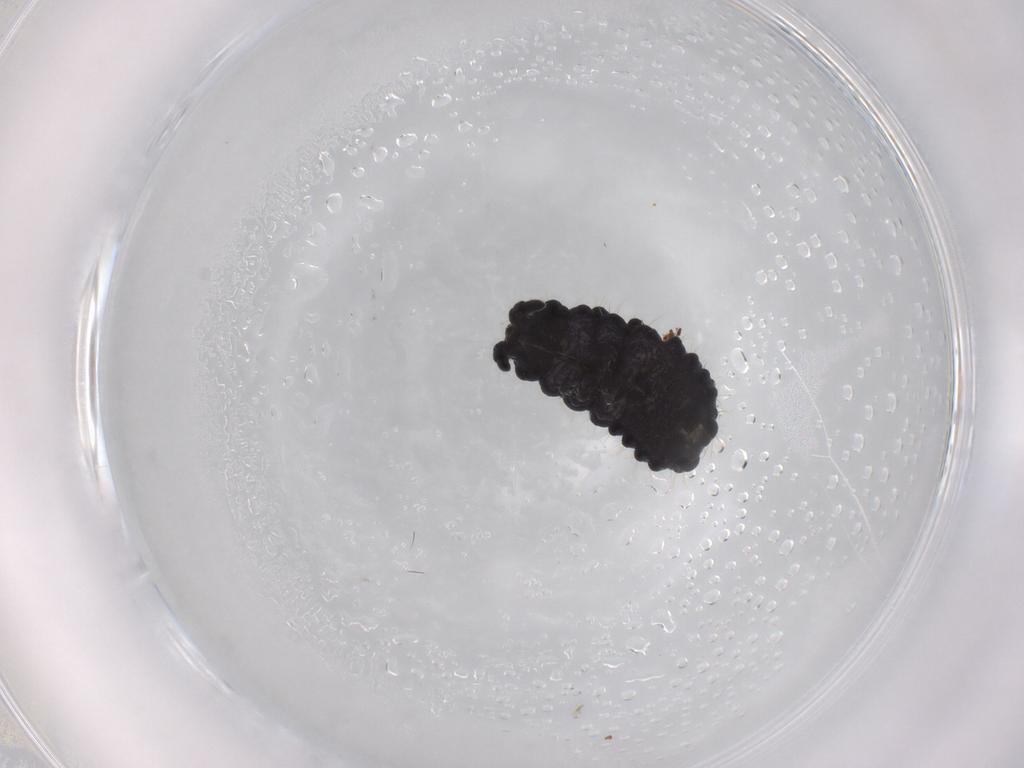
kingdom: Animalia
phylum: Arthropoda
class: Collembola
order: Poduromorpha
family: Neanuridae
